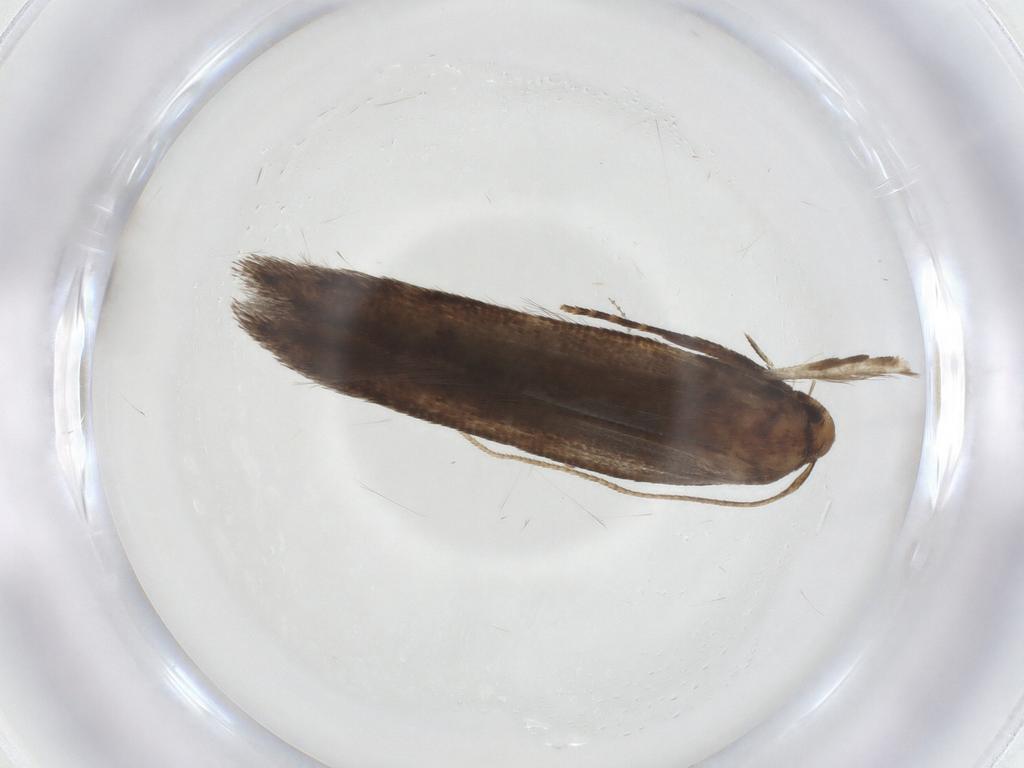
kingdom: Animalia
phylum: Arthropoda
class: Insecta
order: Lepidoptera
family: Cosmopterigidae
